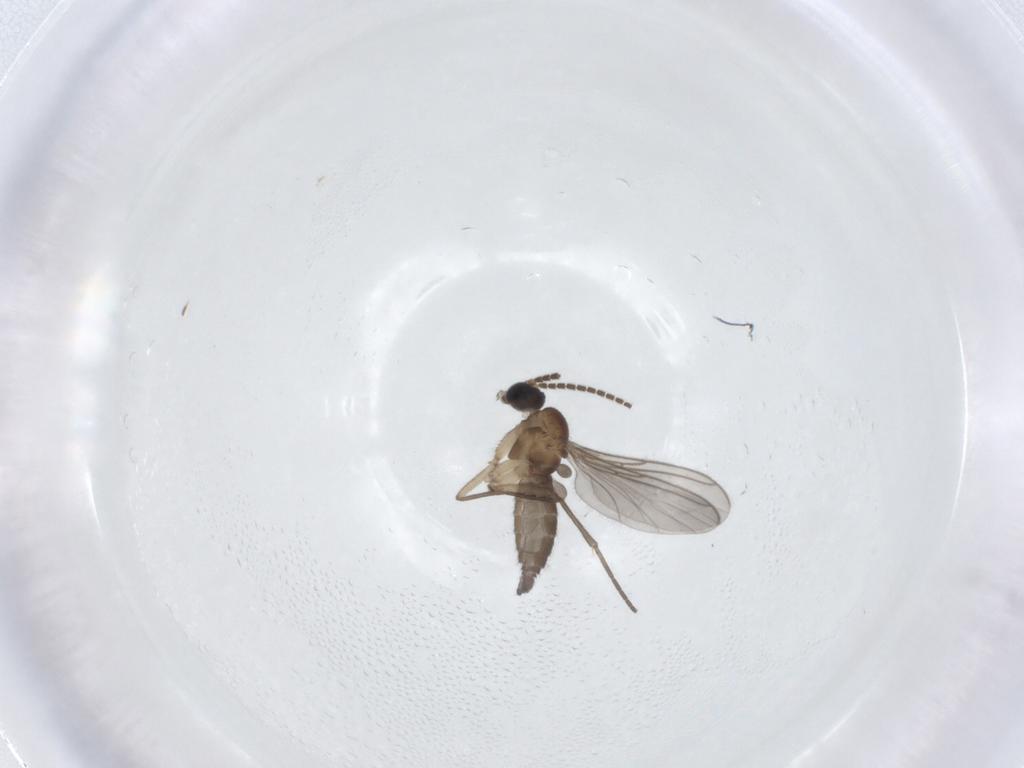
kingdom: Animalia
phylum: Arthropoda
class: Insecta
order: Diptera
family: Sciaridae
